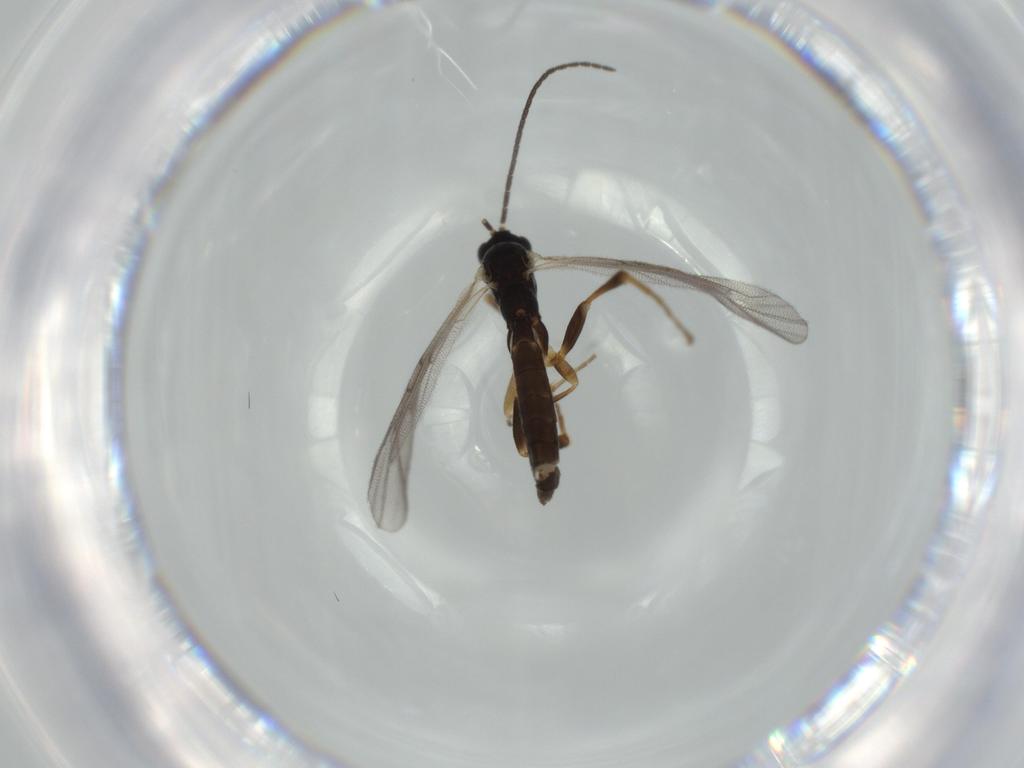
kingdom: Animalia
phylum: Arthropoda
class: Insecta
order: Hymenoptera
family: Ichneumonidae
